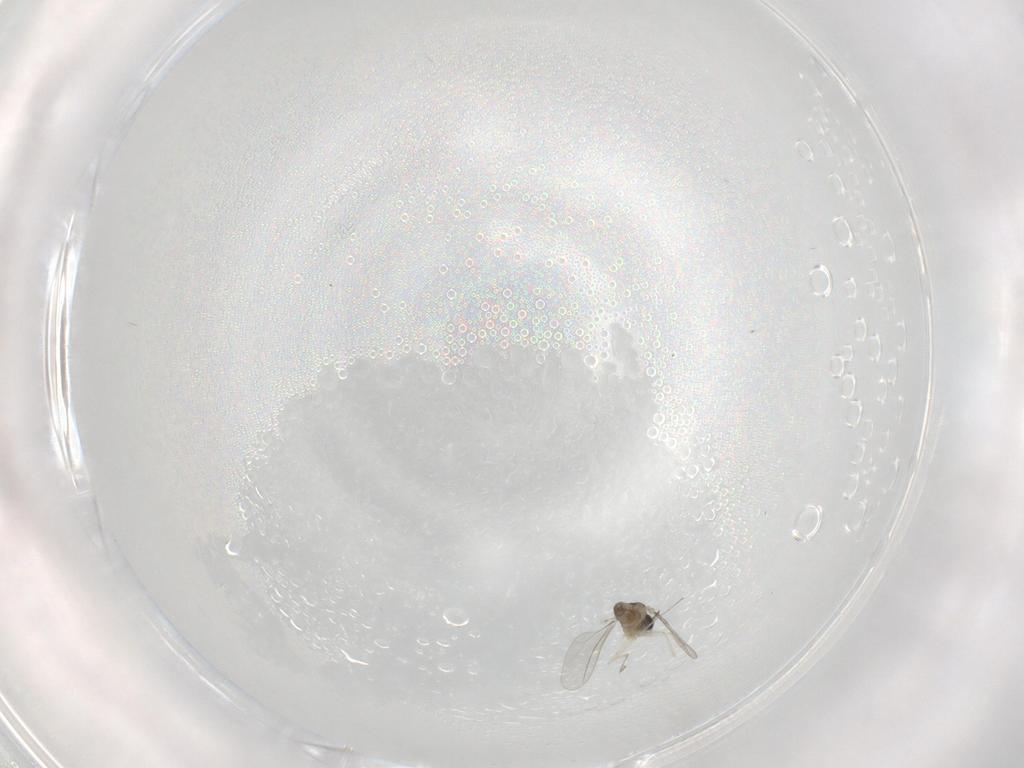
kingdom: Animalia
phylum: Arthropoda
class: Insecta
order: Diptera
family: Cecidomyiidae
